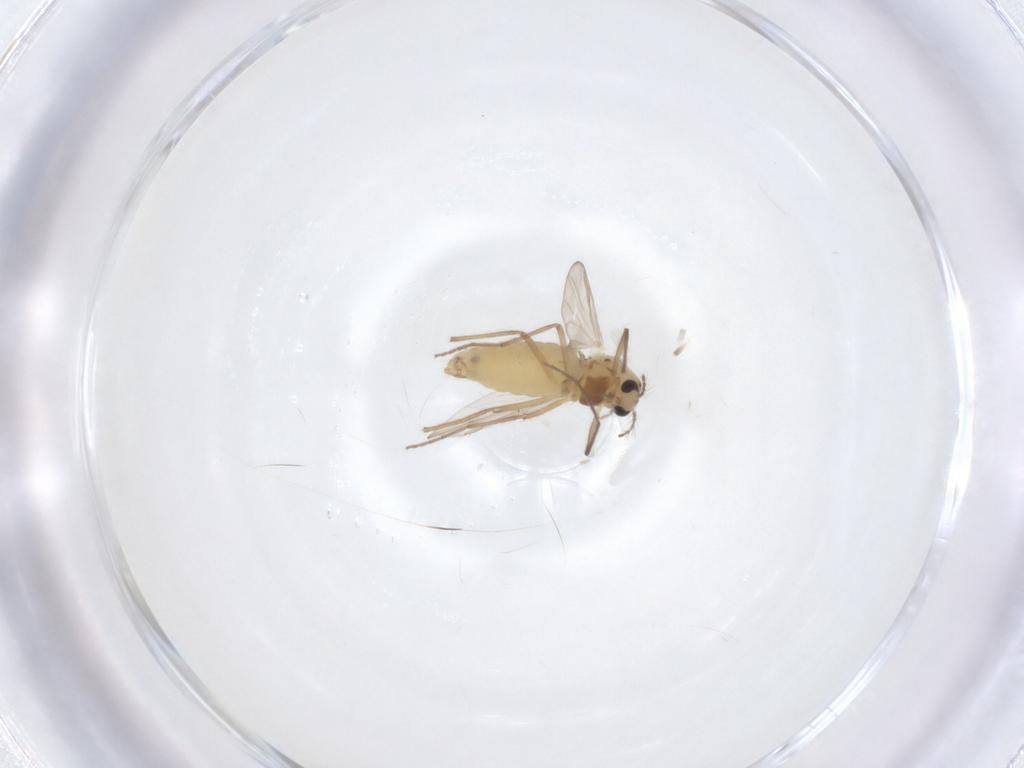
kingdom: Animalia
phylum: Arthropoda
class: Insecta
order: Diptera
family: Chironomidae
